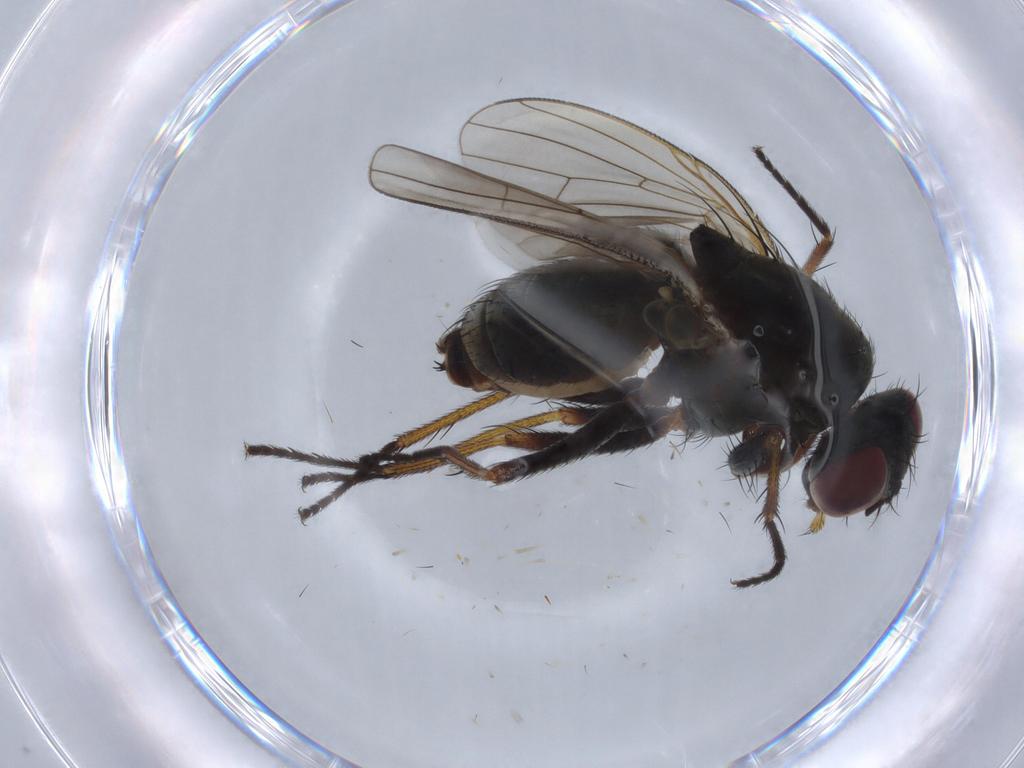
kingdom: Animalia
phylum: Arthropoda
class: Insecta
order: Diptera
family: Muscidae
